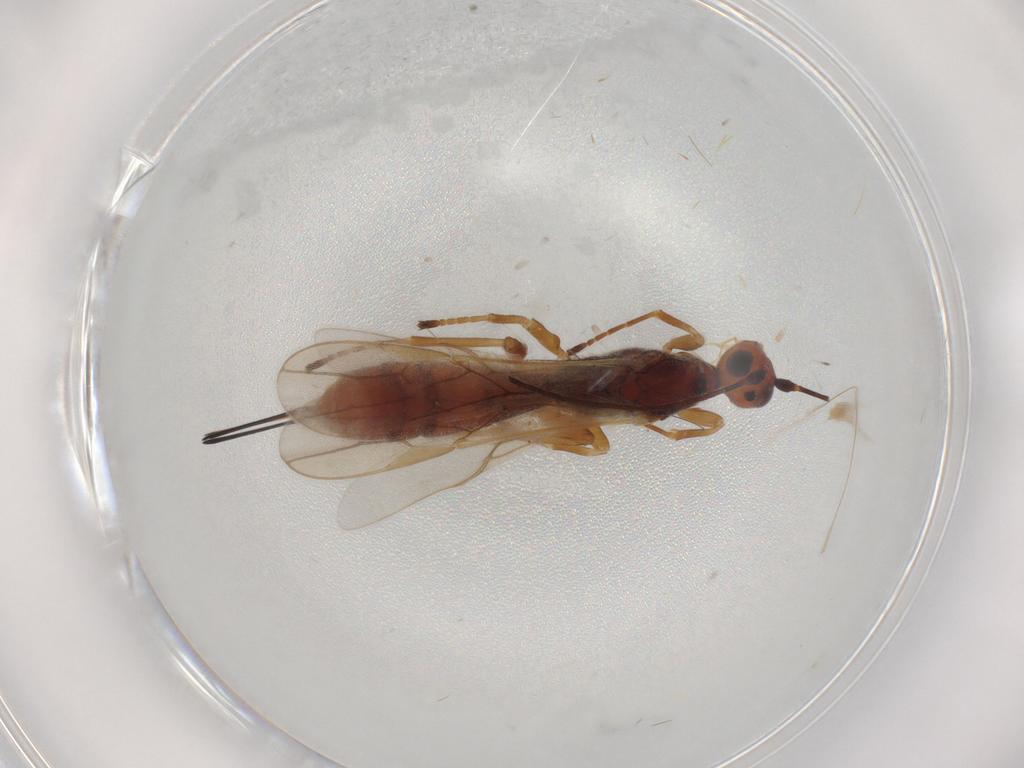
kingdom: Animalia
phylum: Arthropoda
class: Insecta
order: Hymenoptera
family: Braconidae
